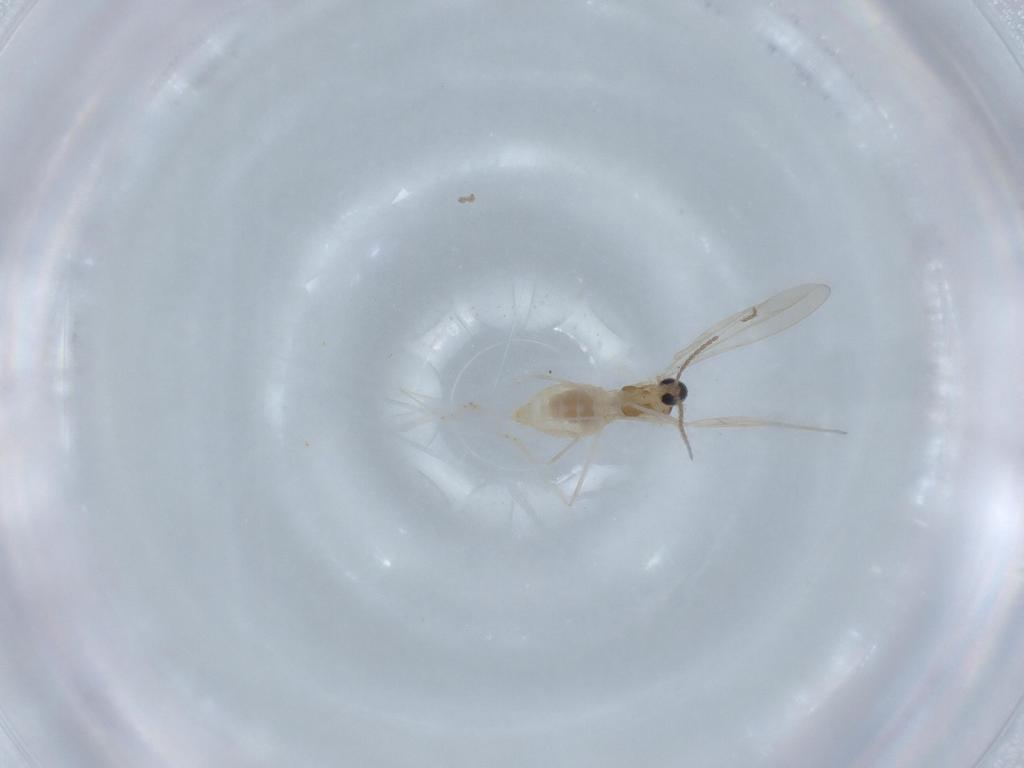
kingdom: Animalia
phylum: Arthropoda
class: Insecta
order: Diptera
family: Cecidomyiidae
